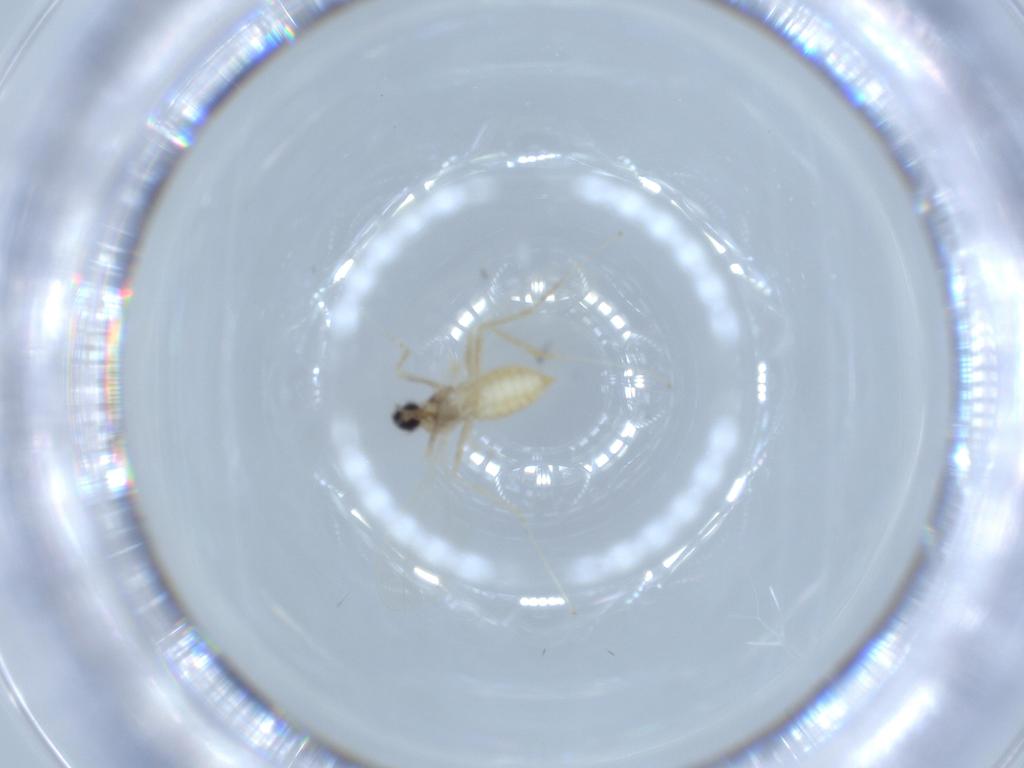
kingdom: Animalia
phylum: Arthropoda
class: Insecta
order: Diptera
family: Cecidomyiidae
